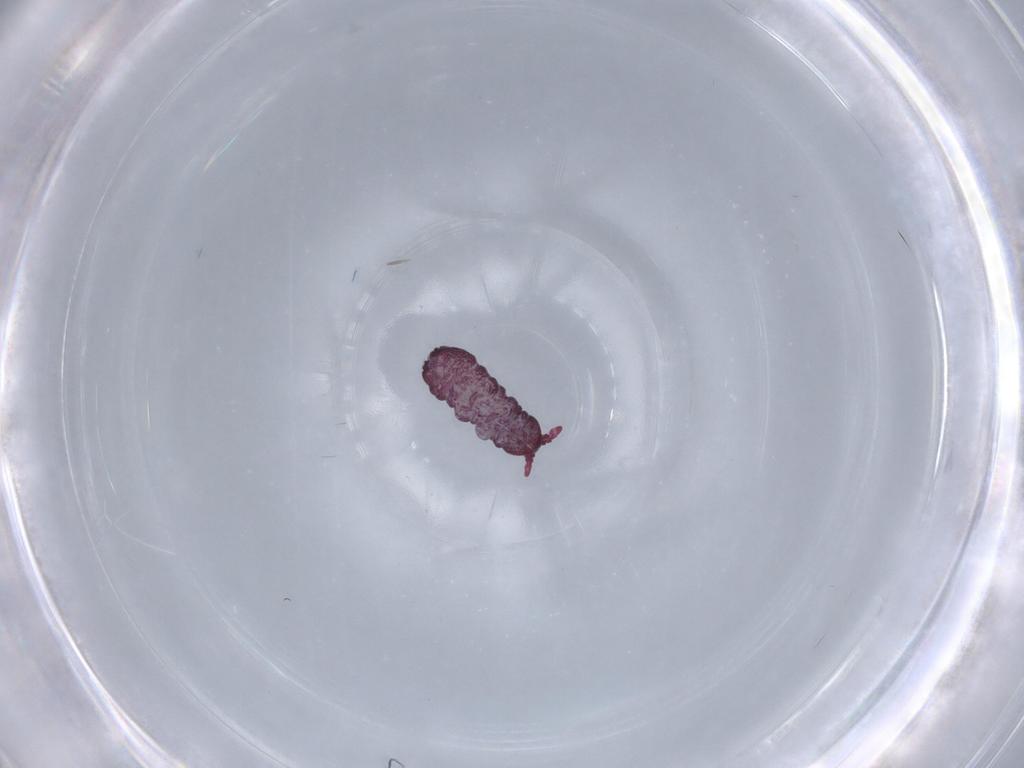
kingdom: Animalia
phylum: Arthropoda
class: Collembola
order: Poduromorpha
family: Brachystomellidae
